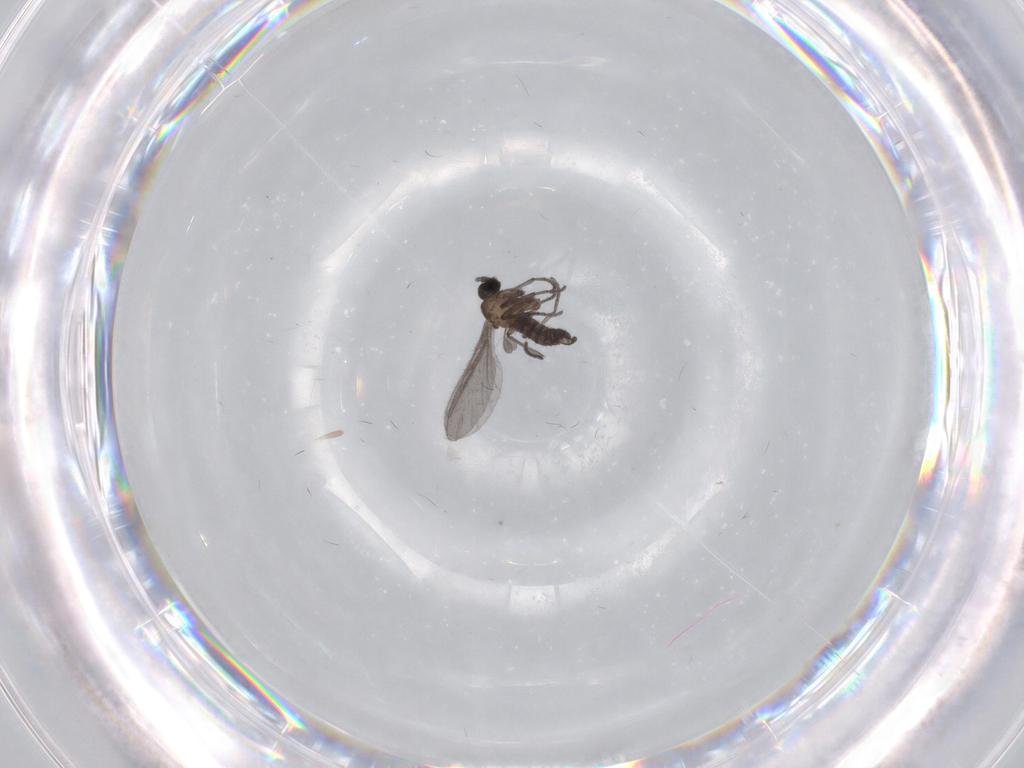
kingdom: Animalia
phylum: Arthropoda
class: Insecta
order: Diptera
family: Sciaridae
